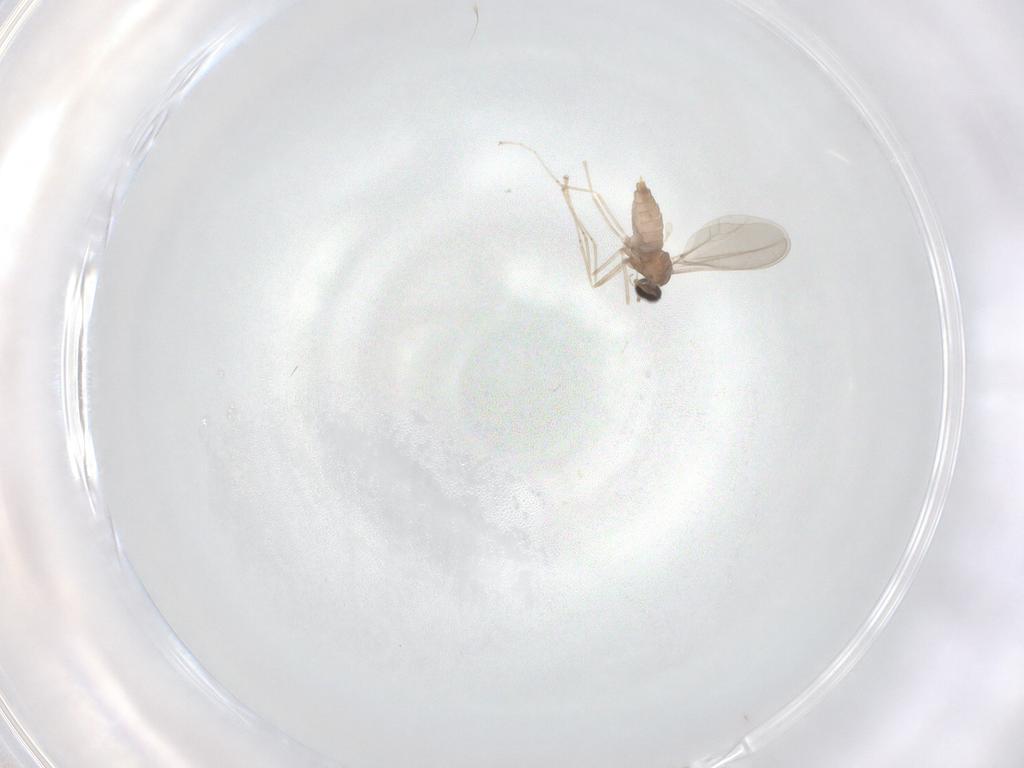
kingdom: Animalia
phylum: Arthropoda
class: Insecta
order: Diptera
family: Cecidomyiidae
